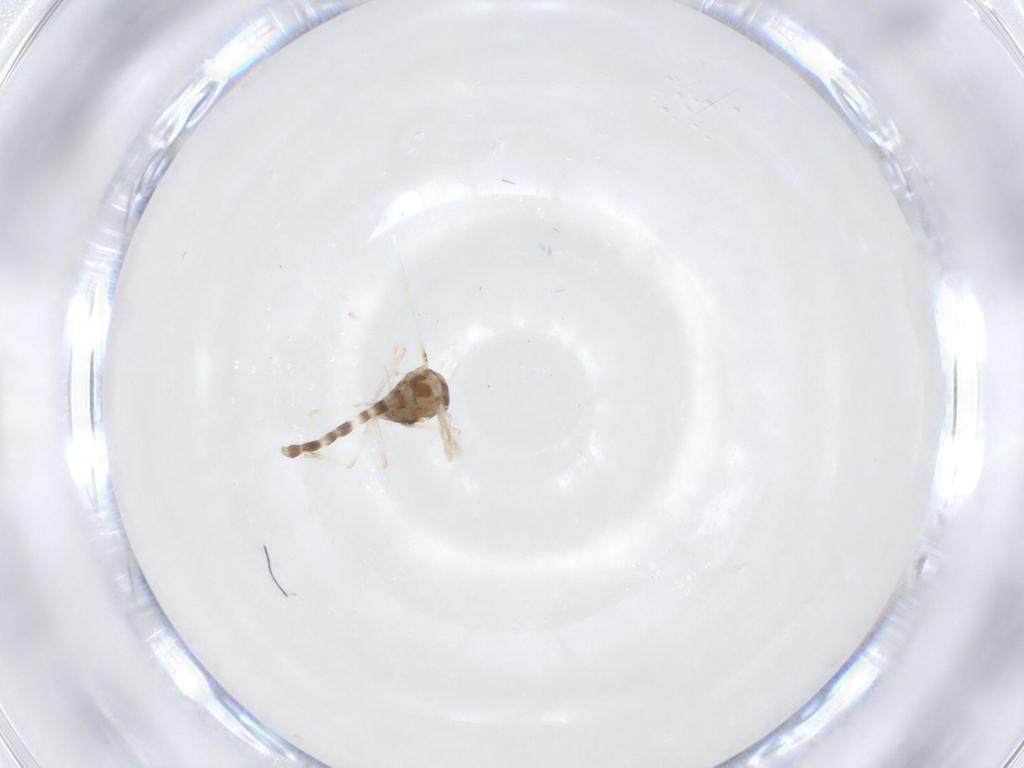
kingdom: Animalia
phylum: Arthropoda
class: Insecta
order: Diptera
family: Chironomidae
